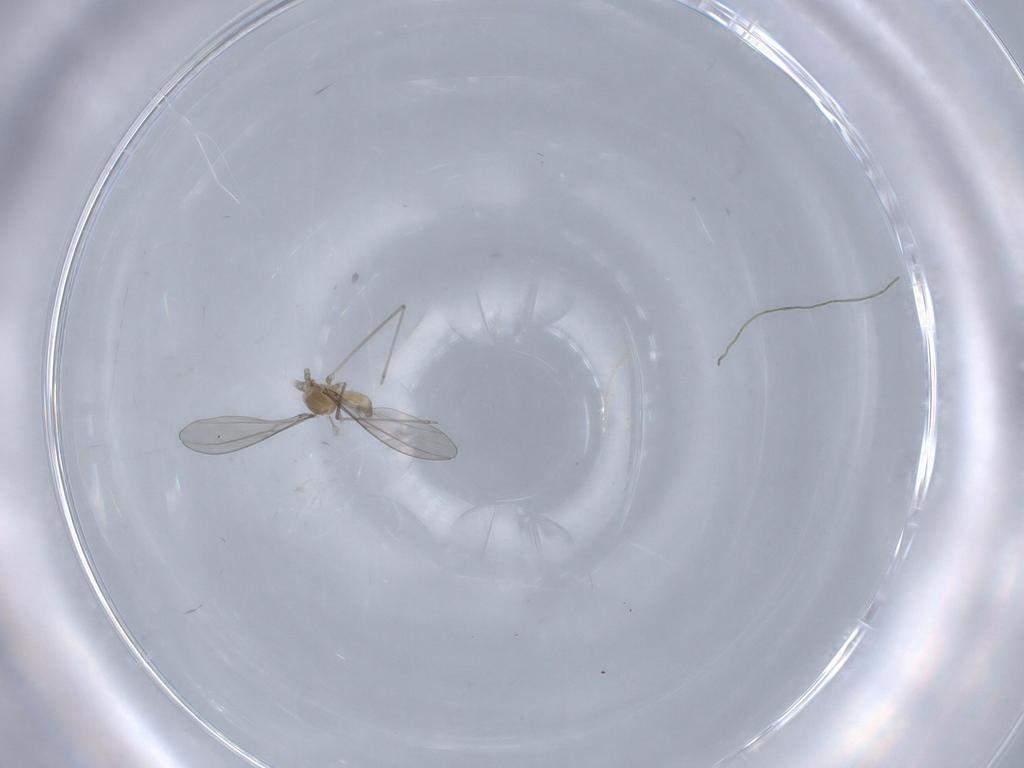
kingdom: Animalia
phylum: Arthropoda
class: Insecta
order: Diptera
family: Cecidomyiidae
